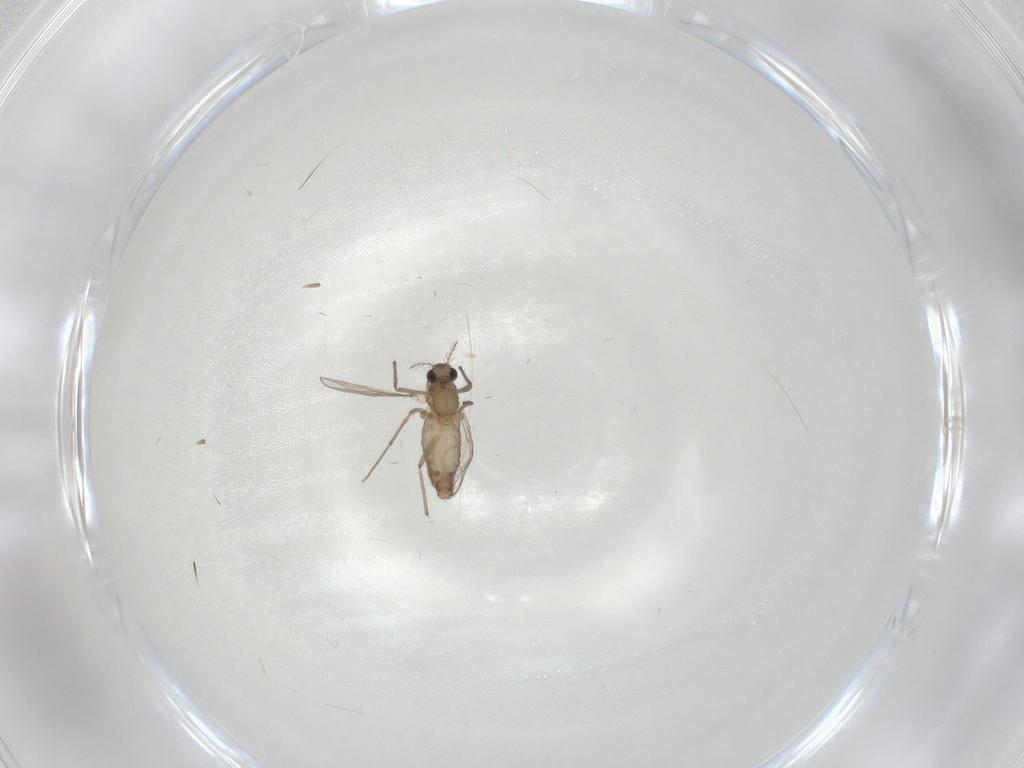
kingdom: Animalia
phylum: Arthropoda
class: Insecta
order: Diptera
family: Chironomidae
